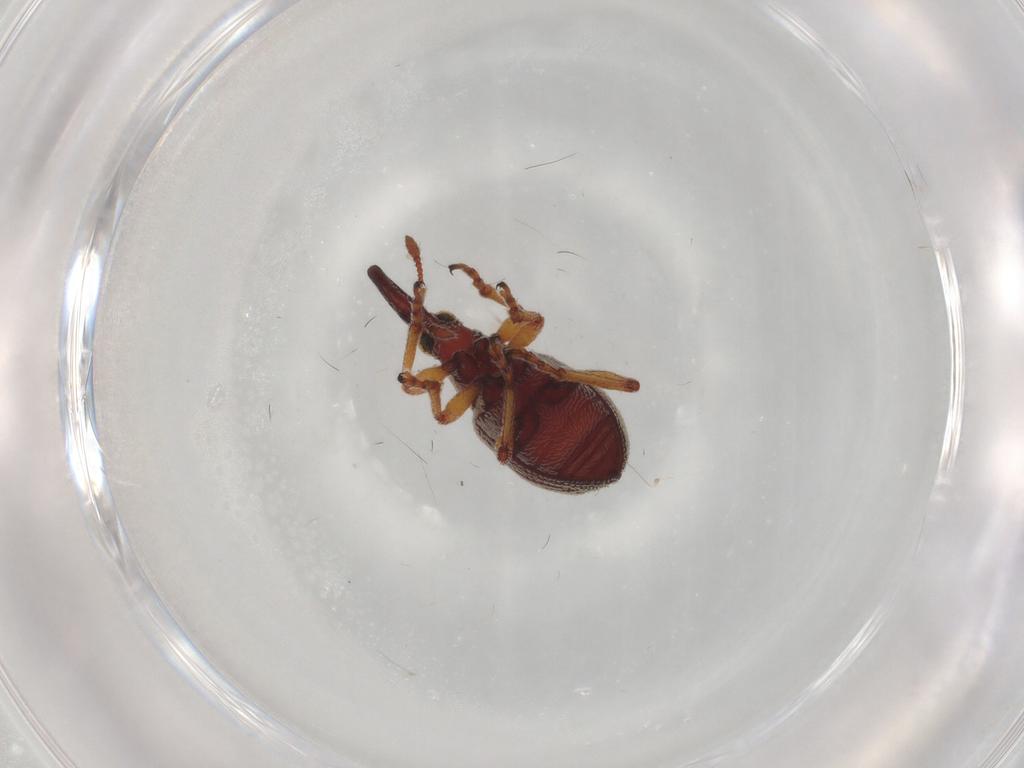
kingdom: Animalia
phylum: Arthropoda
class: Insecta
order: Coleoptera
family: Brentidae
